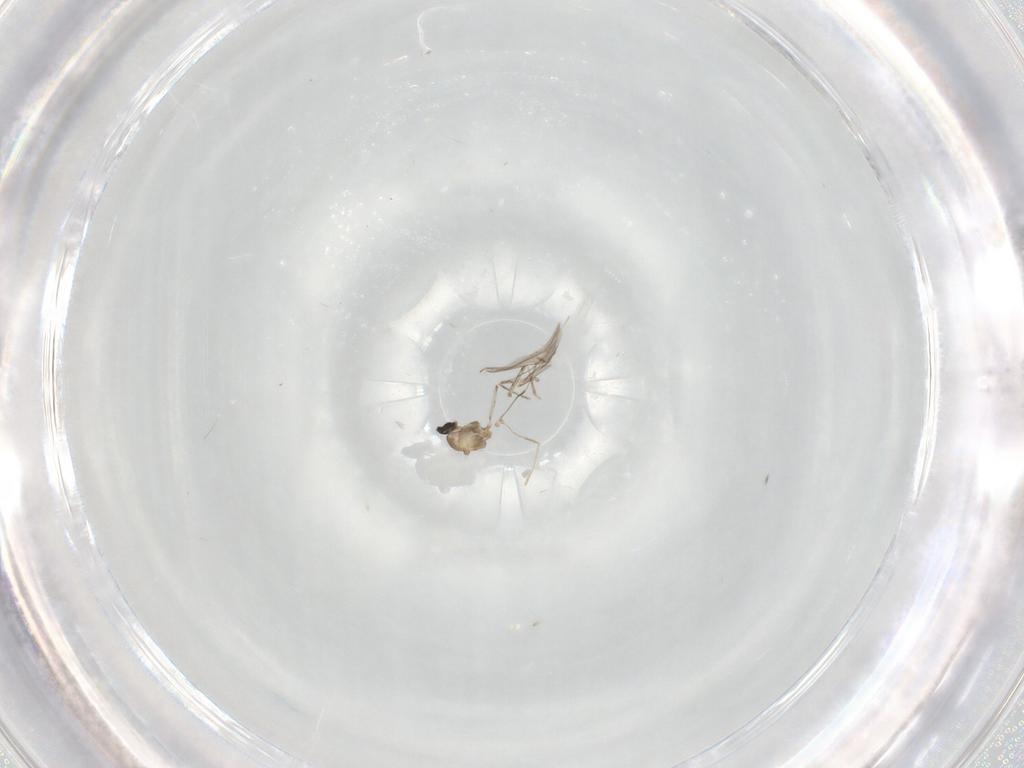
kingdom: Animalia
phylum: Arthropoda
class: Insecta
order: Diptera
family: Cecidomyiidae
